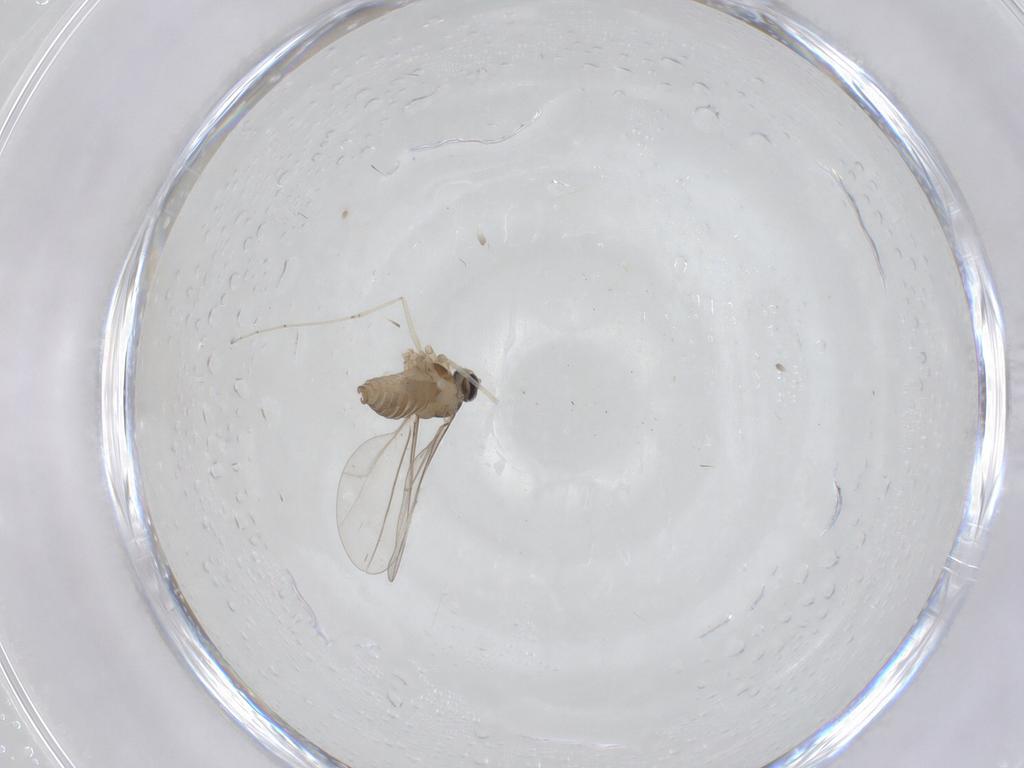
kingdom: Animalia
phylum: Arthropoda
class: Insecta
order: Diptera
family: Sciaridae
